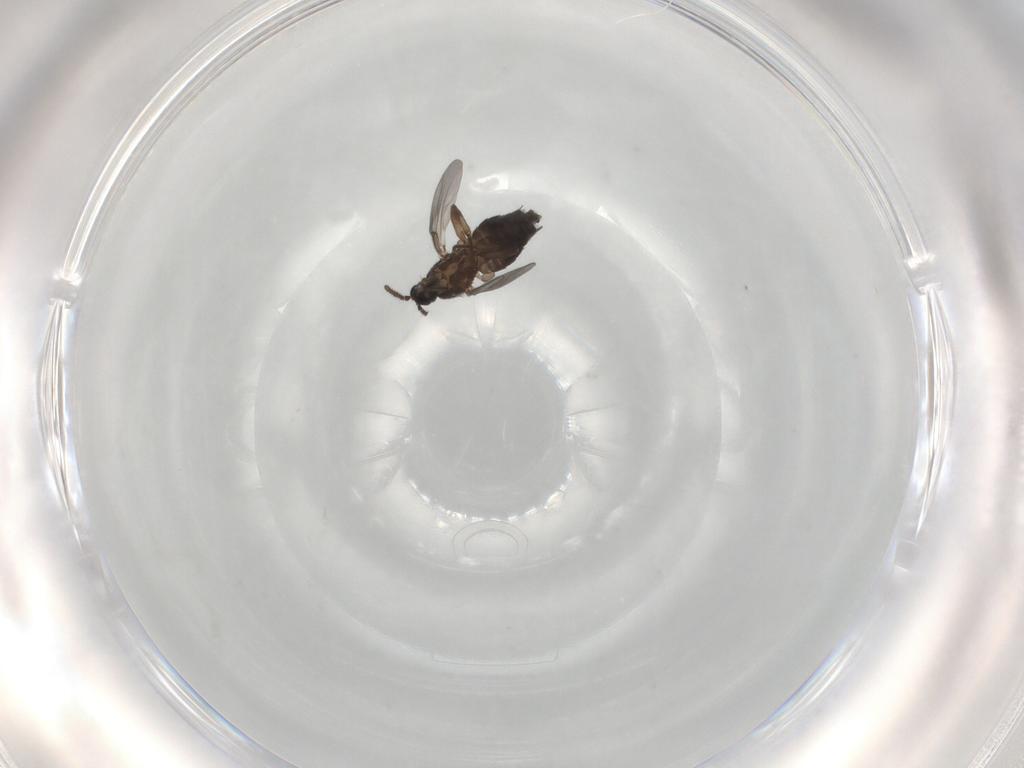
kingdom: Animalia
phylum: Arthropoda
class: Insecta
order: Diptera
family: Scatopsidae
